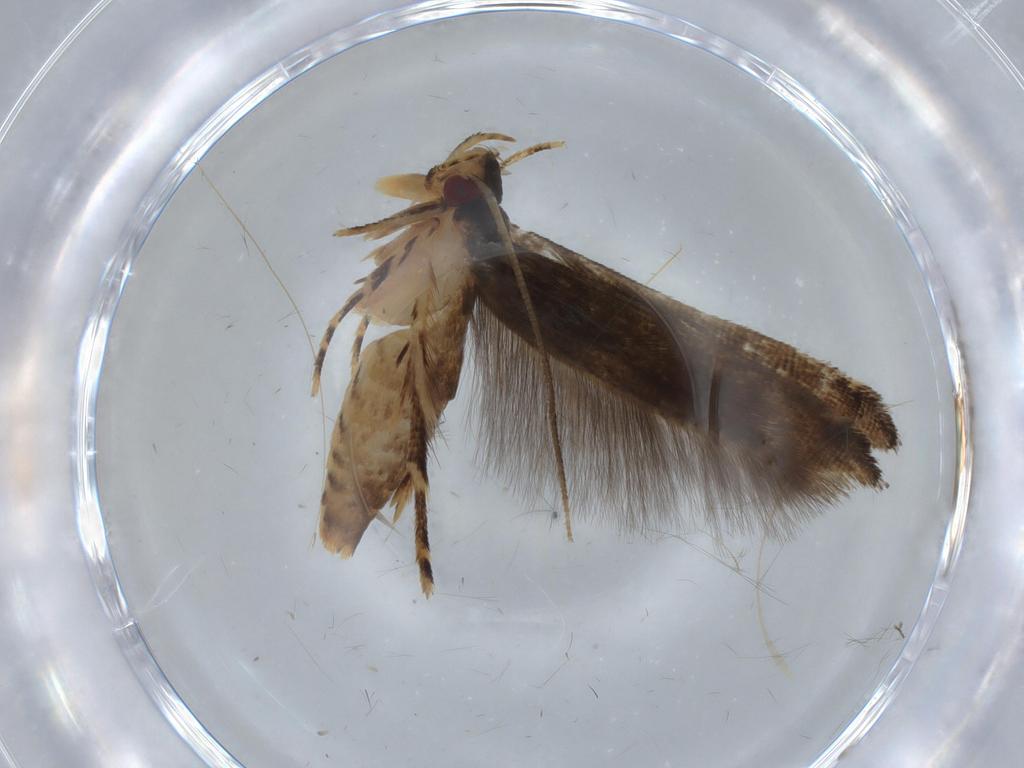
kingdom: Animalia
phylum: Arthropoda
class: Insecta
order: Lepidoptera
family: Momphidae
